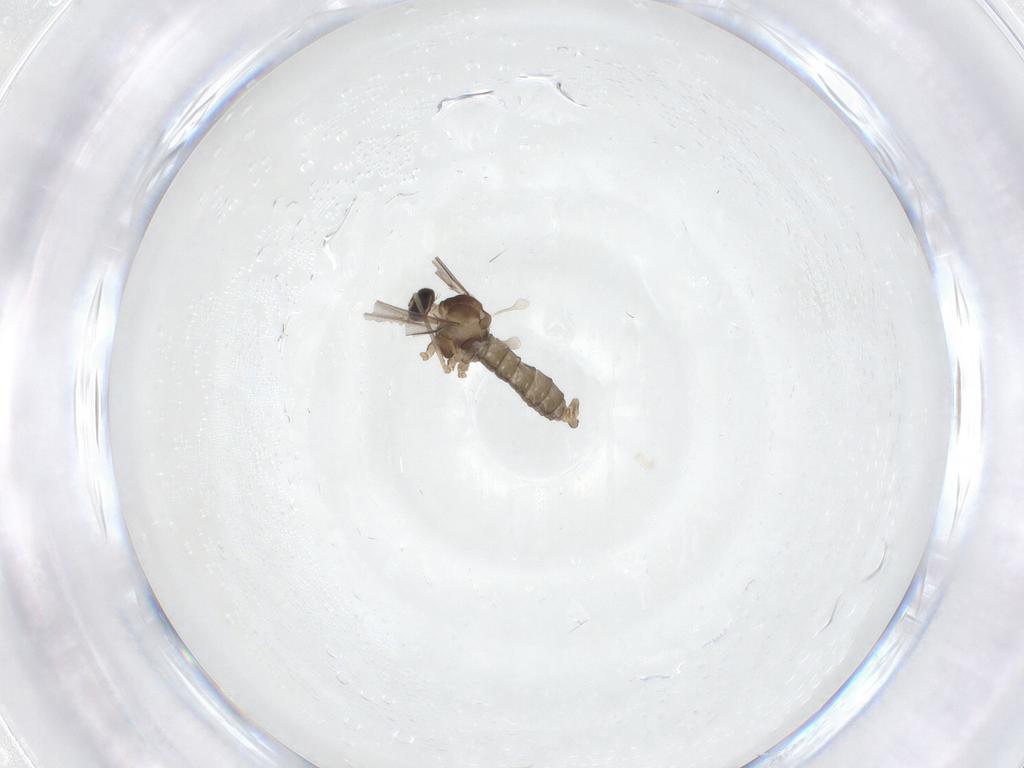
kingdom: Animalia
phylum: Arthropoda
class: Insecta
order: Diptera
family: Cecidomyiidae
